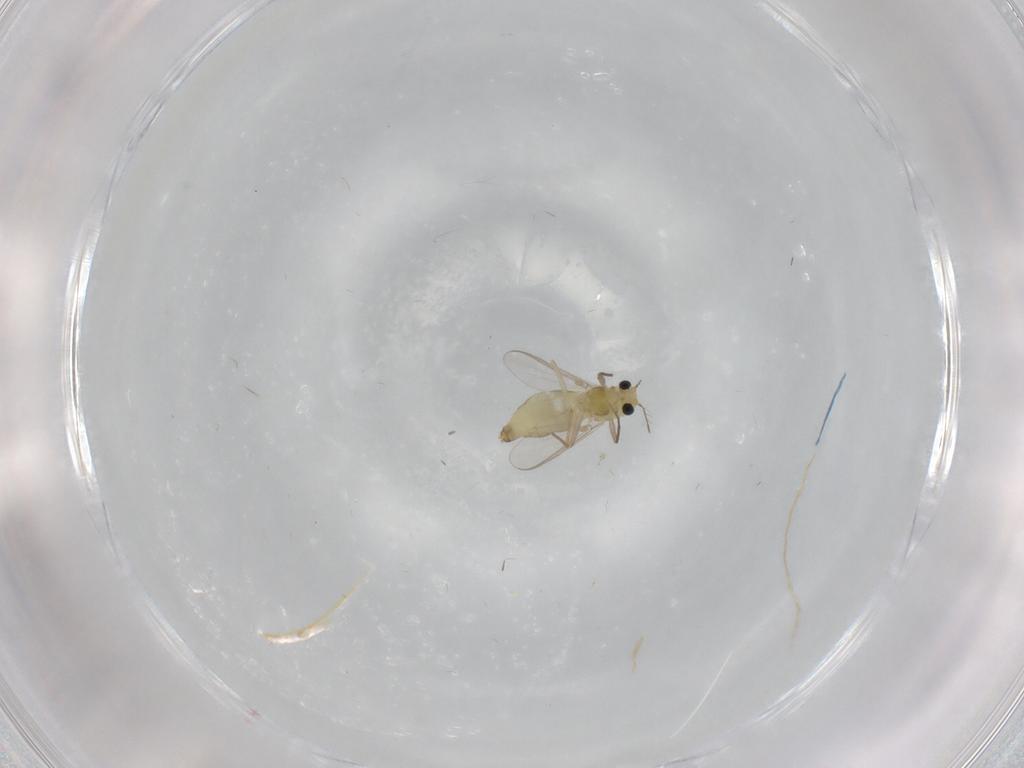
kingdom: Animalia
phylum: Arthropoda
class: Insecta
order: Diptera
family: Chironomidae
